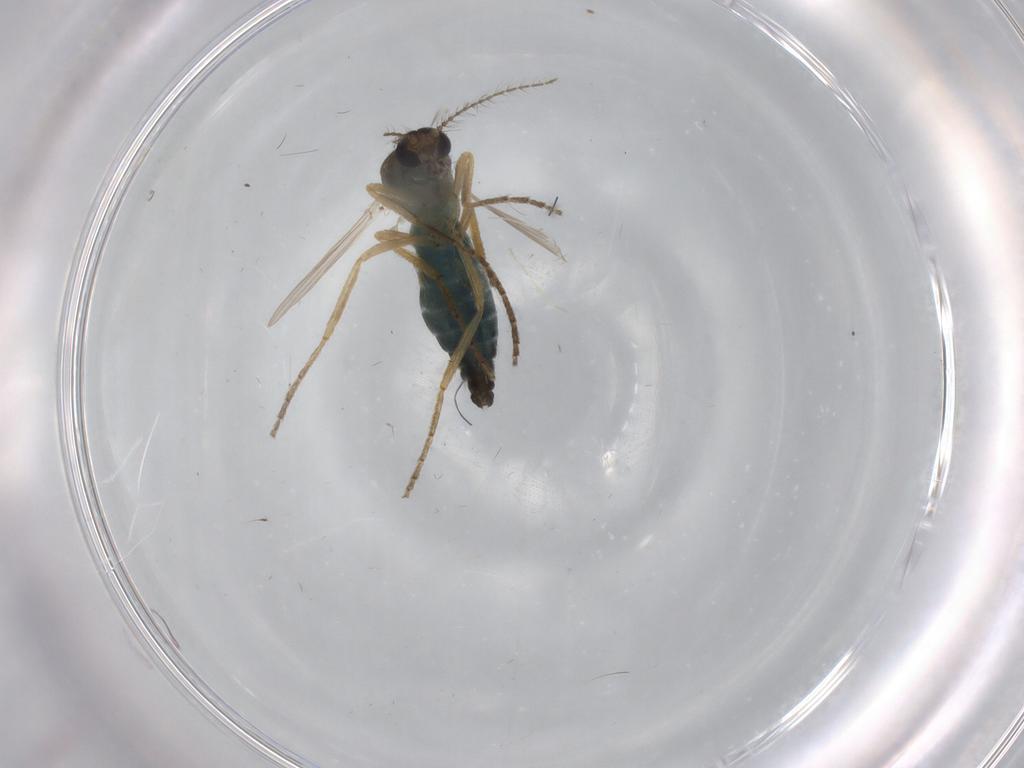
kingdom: Animalia
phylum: Arthropoda
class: Insecta
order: Diptera
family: Ceratopogonidae
